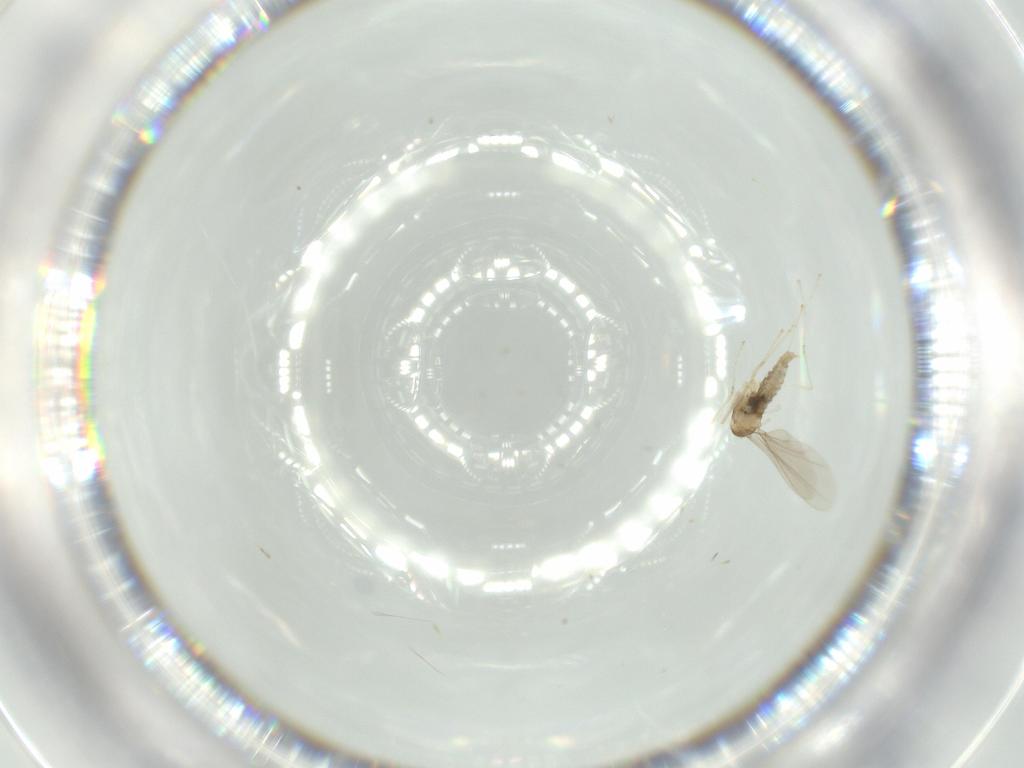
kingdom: Animalia
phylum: Arthropoda
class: Insecta
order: Diptera
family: Cecidomyiidae
